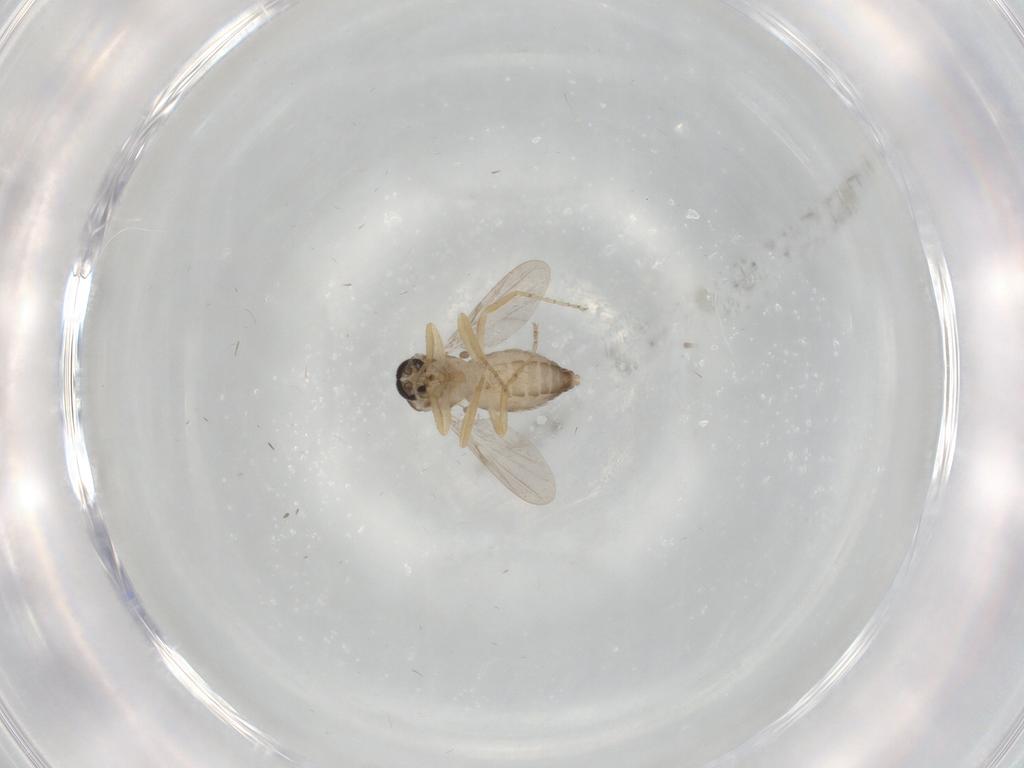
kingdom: Animalia
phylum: Arthropoda
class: Insecta
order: Diptera
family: Ceratopogonidae
